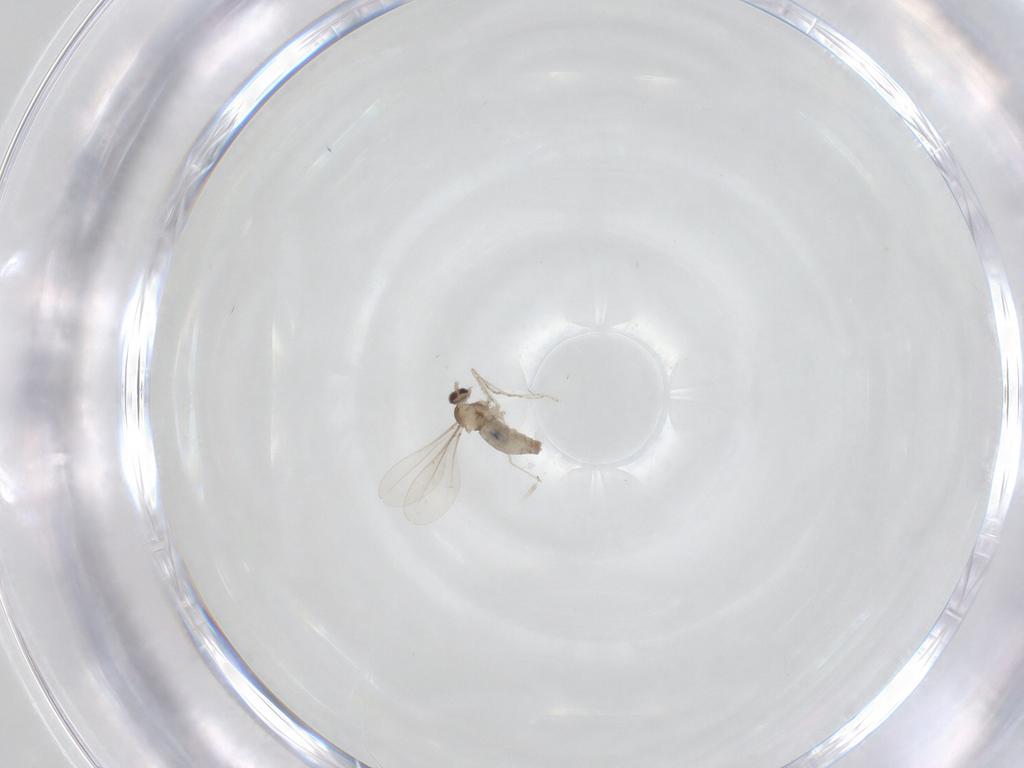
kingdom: Animalia
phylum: Arthropoda
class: Insecta
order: Diptera
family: Cecidomyiidae
